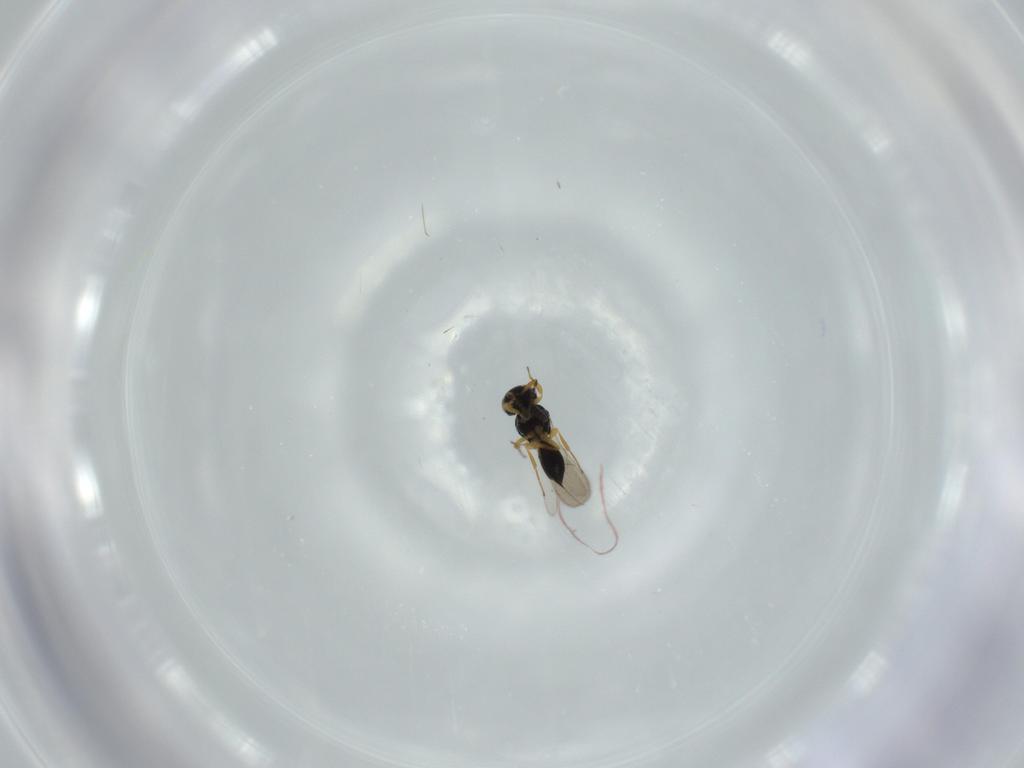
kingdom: Animalia
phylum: Arthropoda
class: Insecta
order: Hymenoptera
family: Scelionidae
